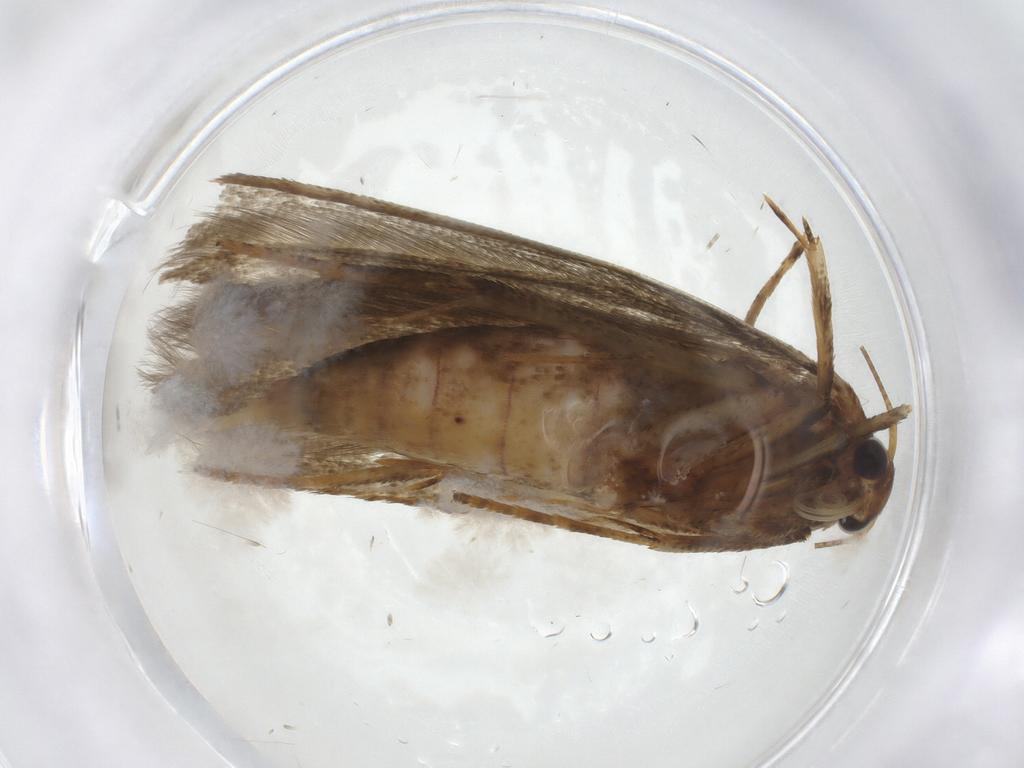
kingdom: Animalia
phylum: Arthropoda
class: Insecta
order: Lepidoptera
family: Blastobasidae
